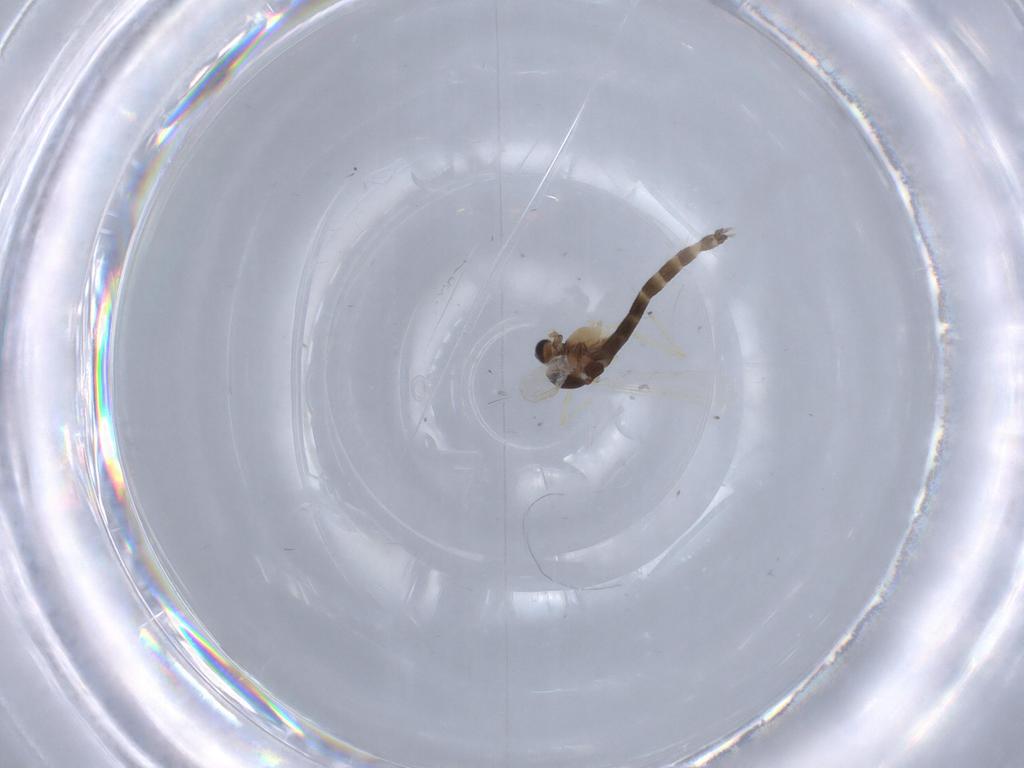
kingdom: Animalia
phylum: Arthropoda
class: Insecta
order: Diptera
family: Chironomidae
